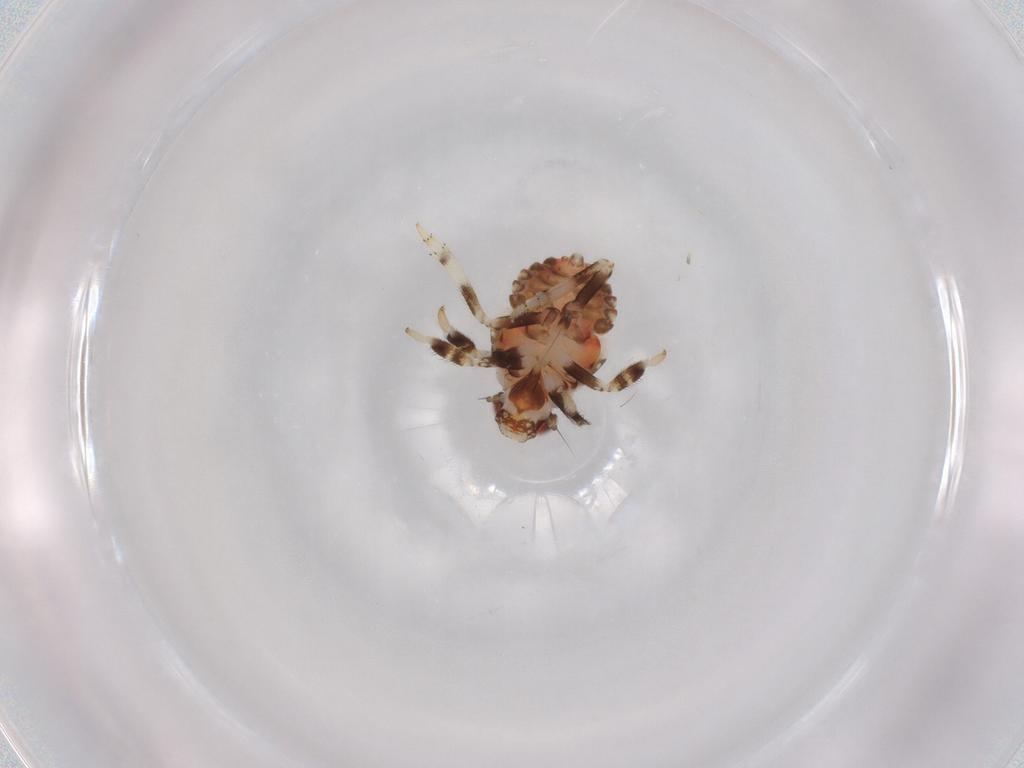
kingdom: Animalia
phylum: Arthropoda
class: Insecta
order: Hemiptera
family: Fulgoroidea_incertae_sedis
